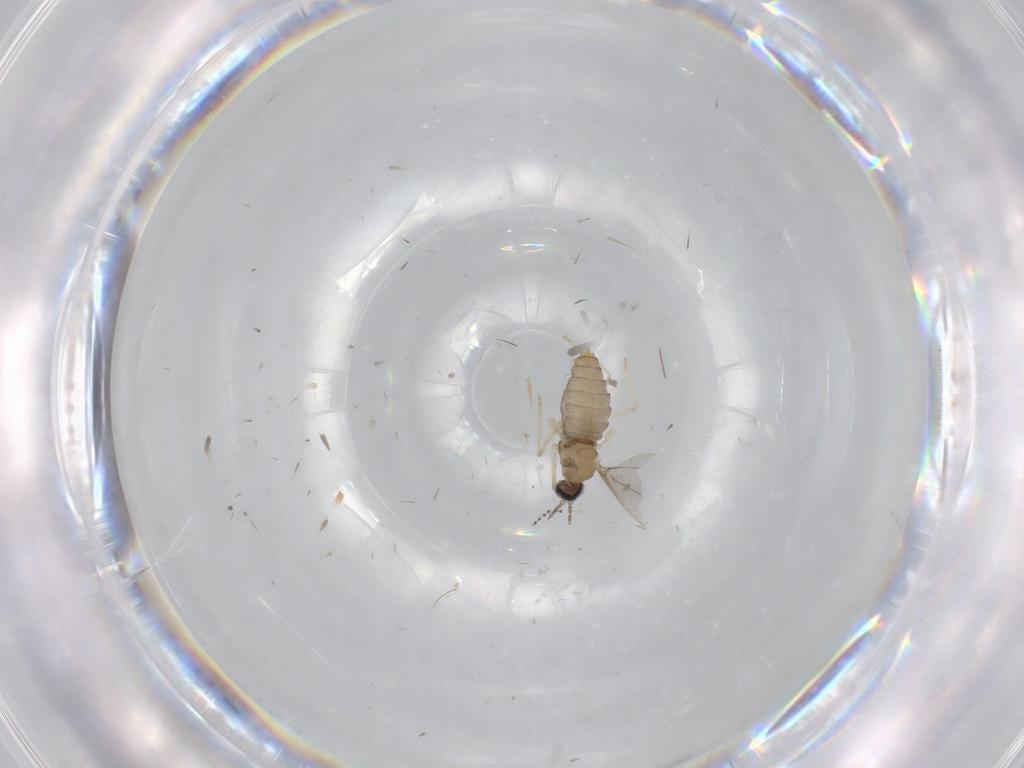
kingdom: Animalia
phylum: Arthropoda
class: Insecta
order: Diptera
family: Cecidomyiidae
